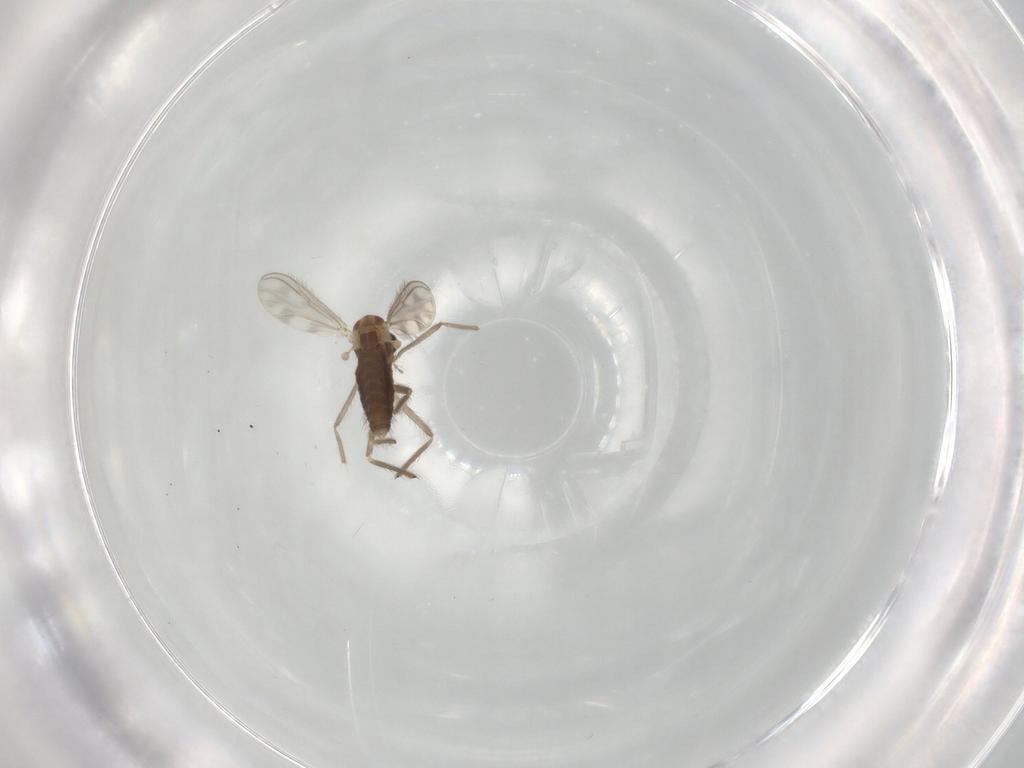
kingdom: Animalia
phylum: Arthropoda
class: Insecta
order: Diptera
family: Chironomidae
